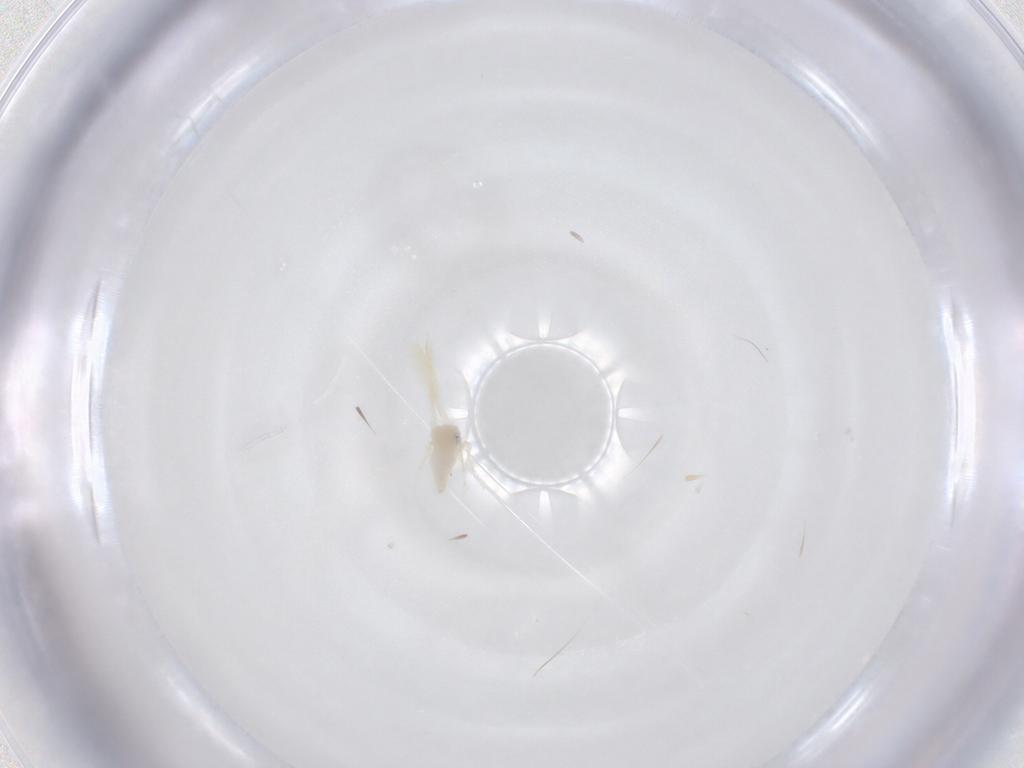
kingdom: Animalia
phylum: Arthropoda
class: Insecta
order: Hemiptera
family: Aleyrodidae
